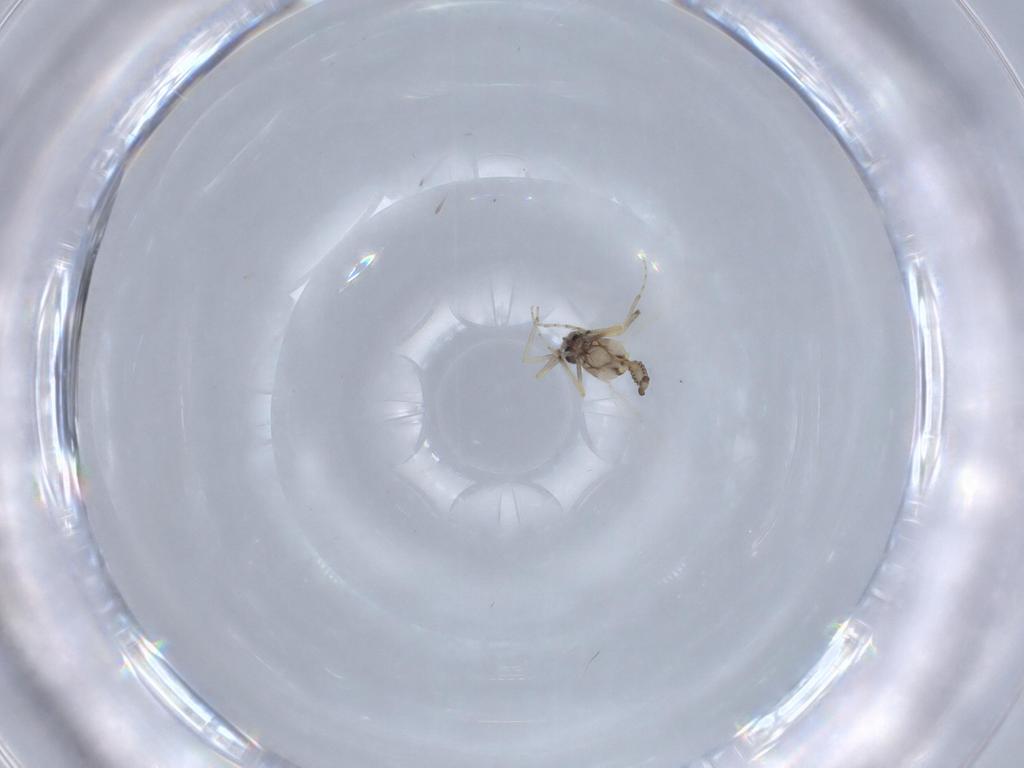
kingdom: Animalia
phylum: Arthropoda
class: Insecta
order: Diptera
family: Ceratopogonidae
